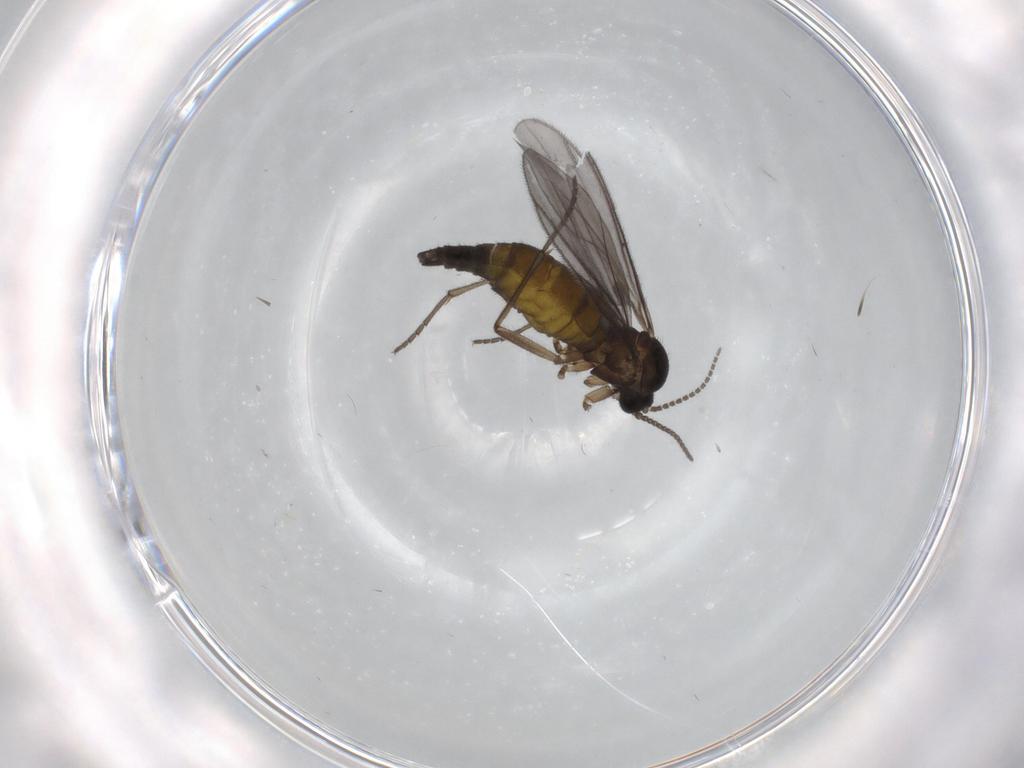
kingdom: Animalia
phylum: Arthropoda
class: Insecta
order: Diptera
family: Sciaridae
